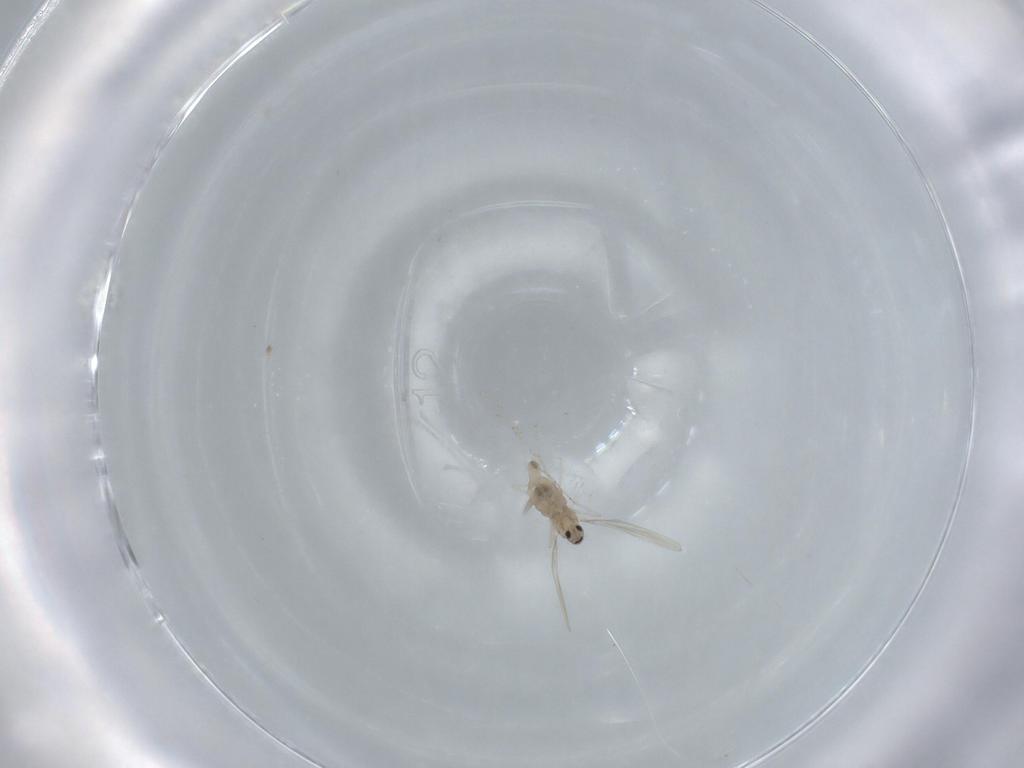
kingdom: Animalia
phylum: Arthropoda
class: Insecta
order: Diptera
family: Cecidomyiidae
